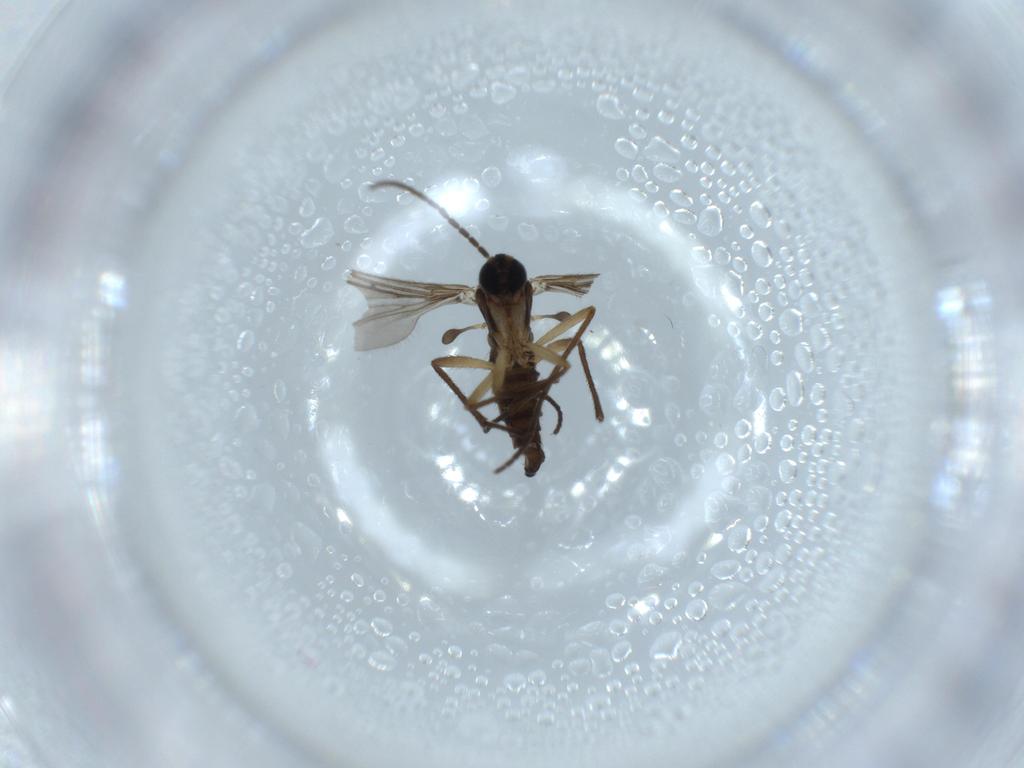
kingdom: Animalia
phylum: Arthropoda
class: Insecta
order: Diptera
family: Sciaridae
